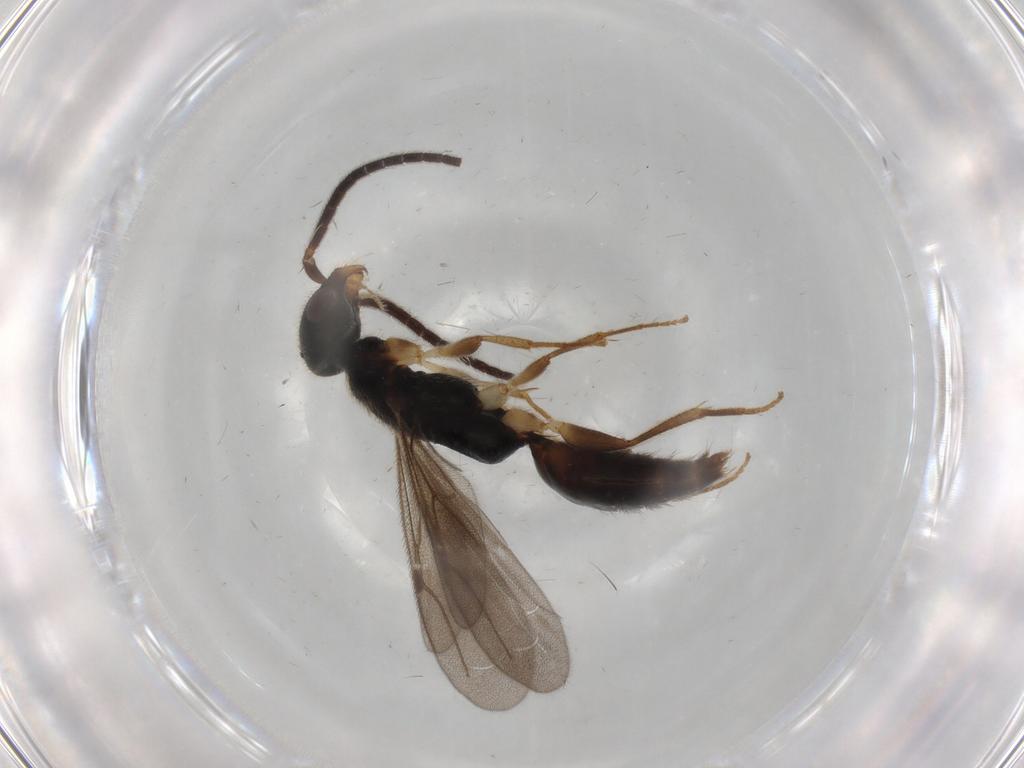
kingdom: Animalia
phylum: Arthropoda
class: Insecta
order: Hymenoptera
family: Bethylidae
